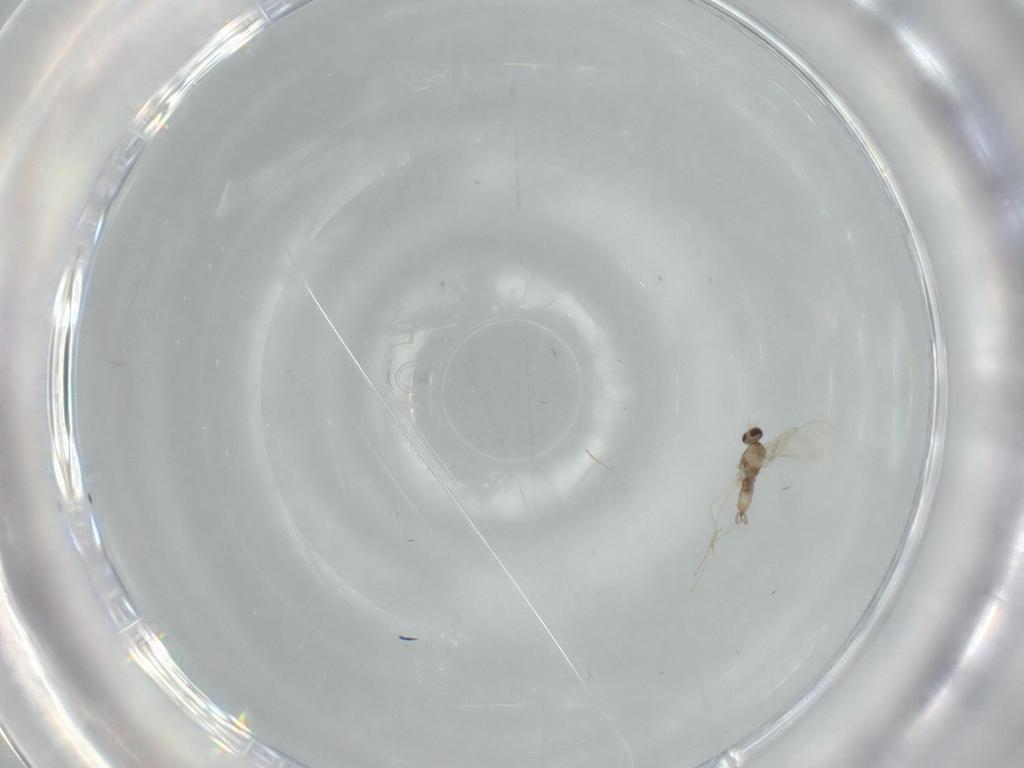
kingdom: Animalia
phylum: Arthropoda
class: Insecta
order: Diptera
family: Cecidomyiidae
